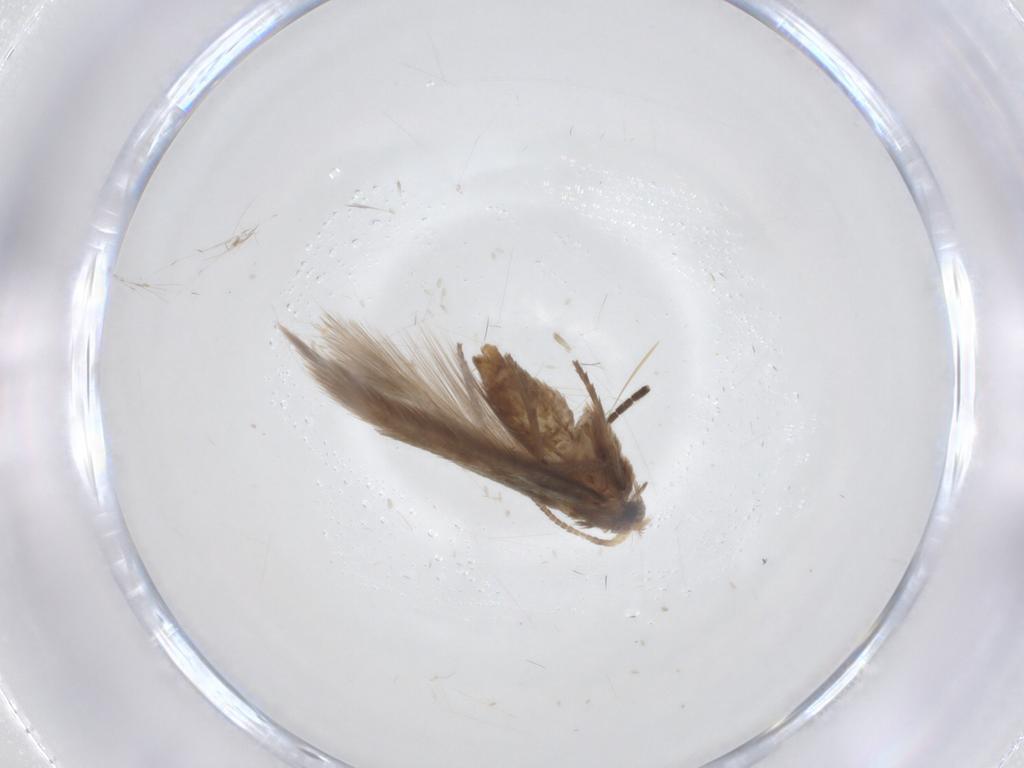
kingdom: Animalia
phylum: Arthropoda
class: Insecta
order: Lepidoptera
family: Nepticulidae
